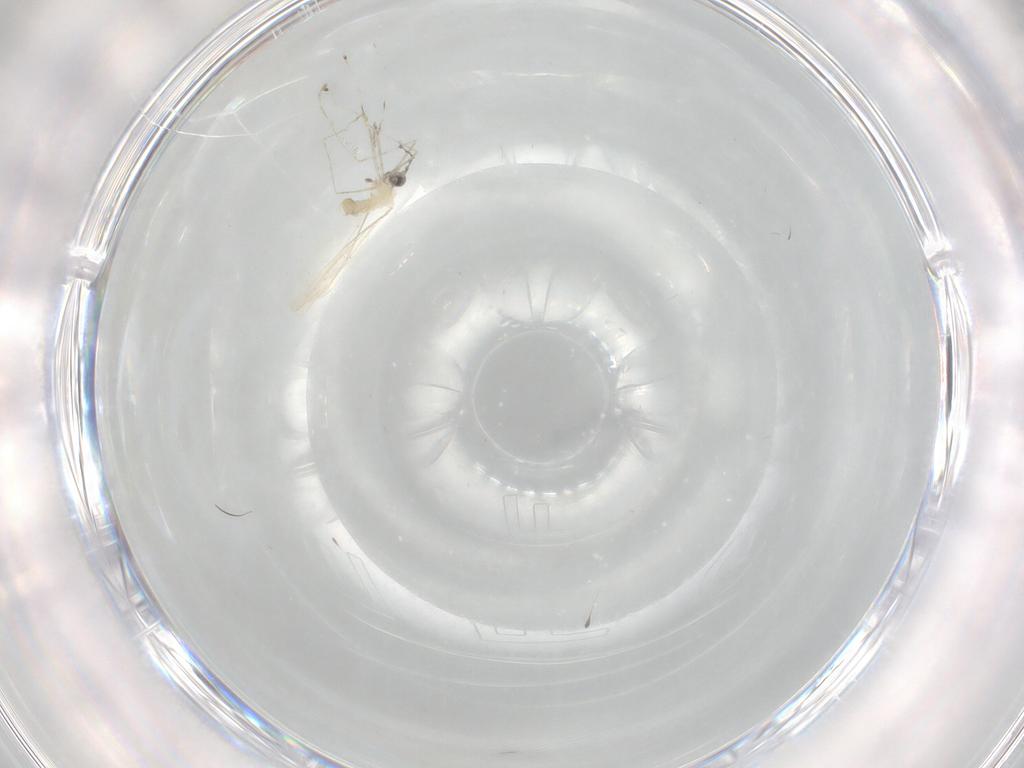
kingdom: Animalia
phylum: Arthropoda
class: Insecta
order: Diptera
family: Cecidomyiidae
